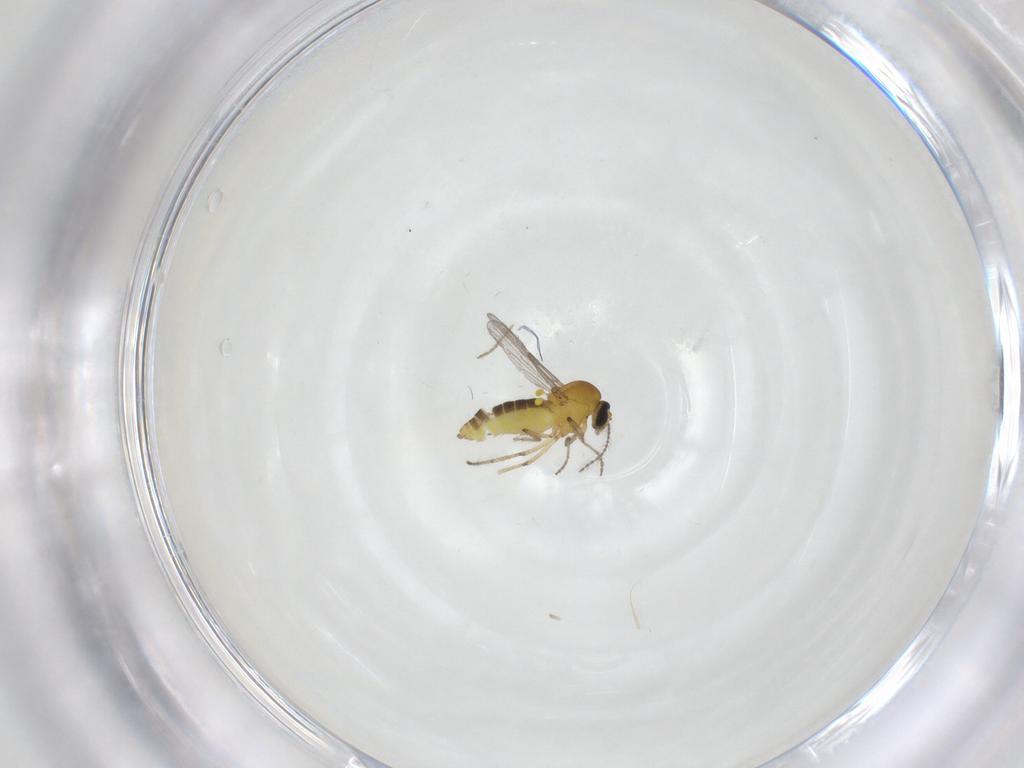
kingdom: Animalia
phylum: Arthropoda
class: Insecta
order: Diptera
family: Ceratopogonidae
